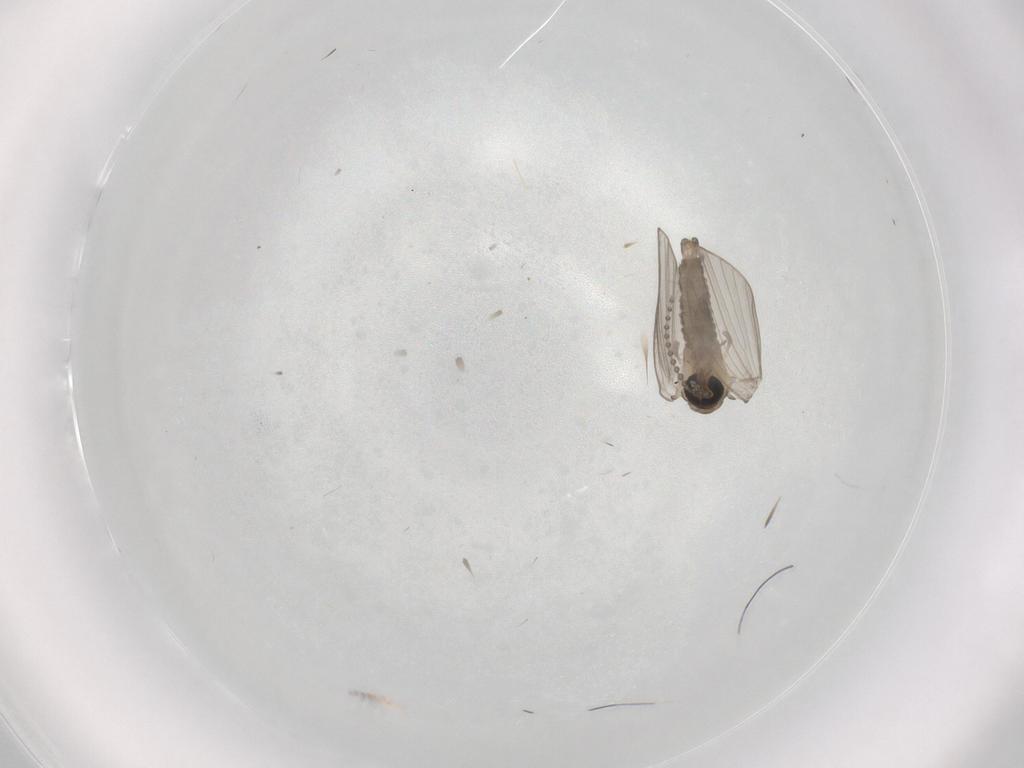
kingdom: Animalia
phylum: Arthropoda
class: Insecta
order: Diptera
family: Psychodidae
